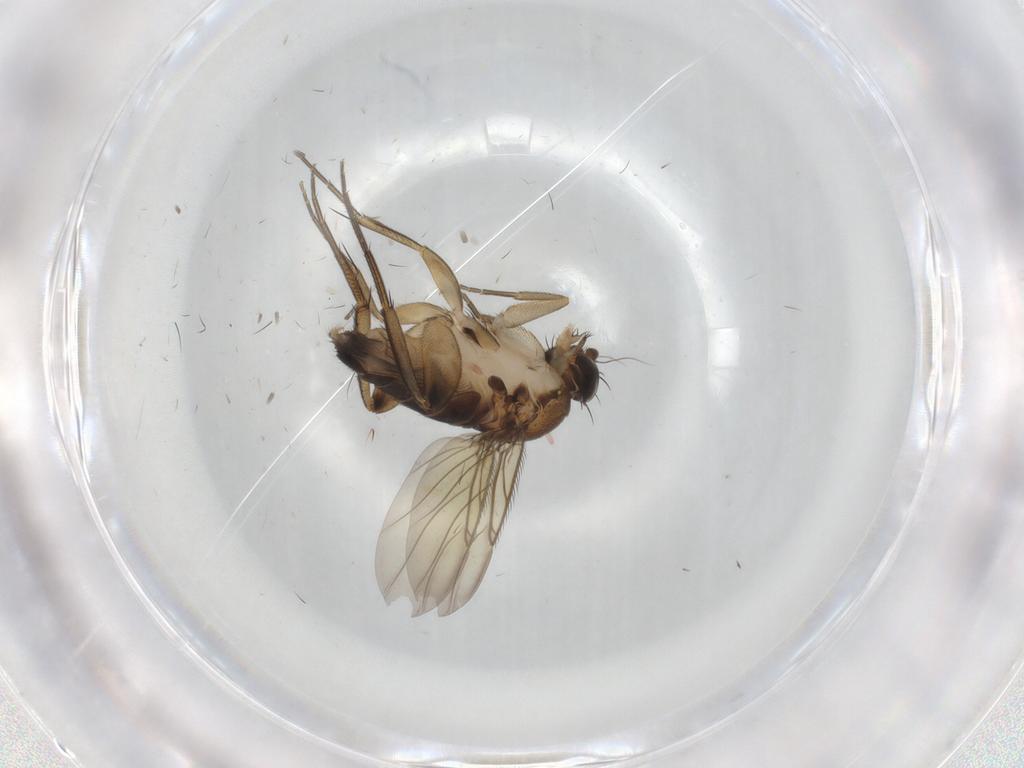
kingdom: Animalia
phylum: Arthropoda
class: Insecta
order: Diptera
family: Phoridae
